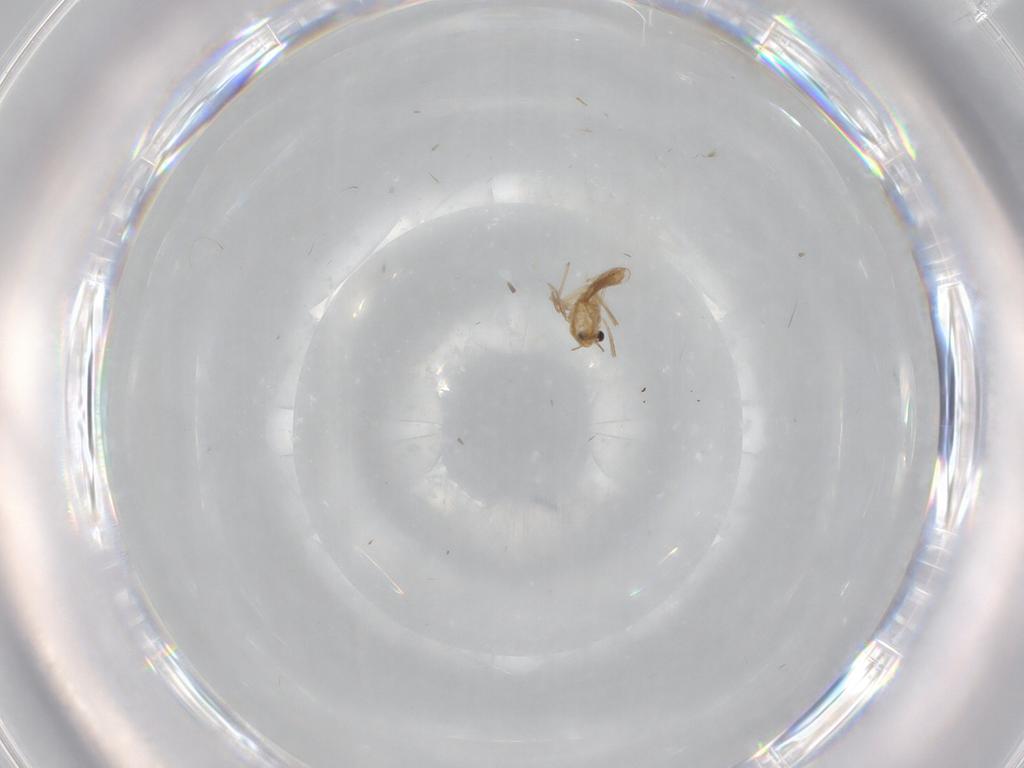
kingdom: Animalia
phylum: Arthropoda
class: Insecta
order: Diptera
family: Chironomidae
